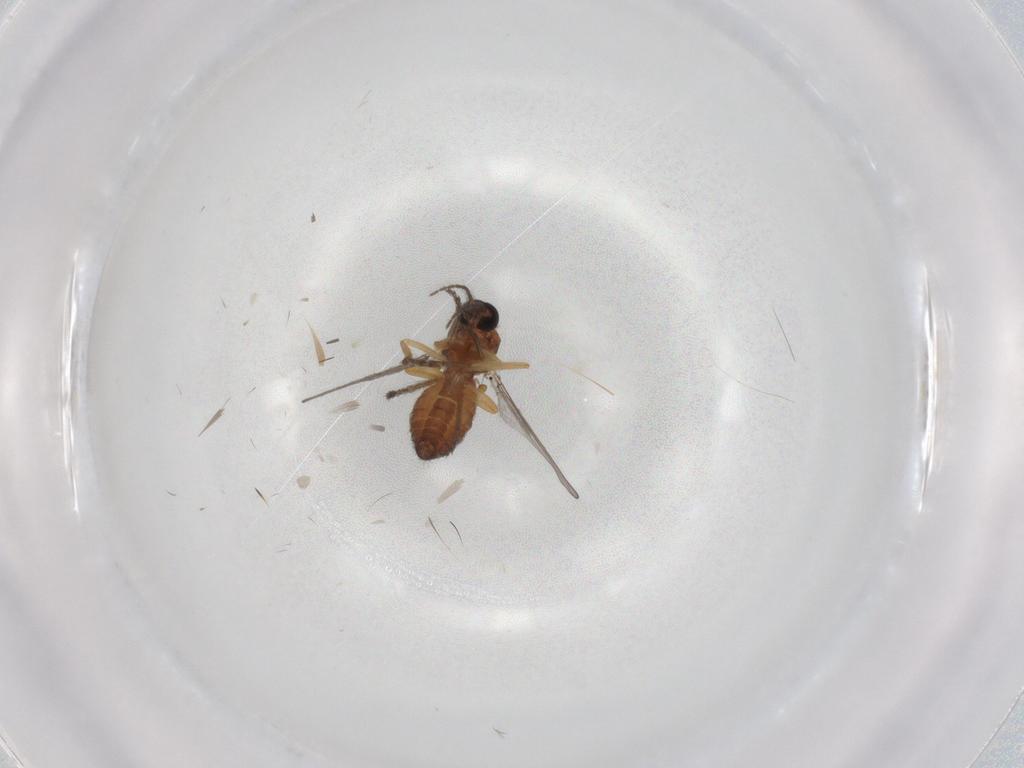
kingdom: Animalia
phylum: Arthropoda
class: Insecta
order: Diptera
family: Ceratopogonidae
